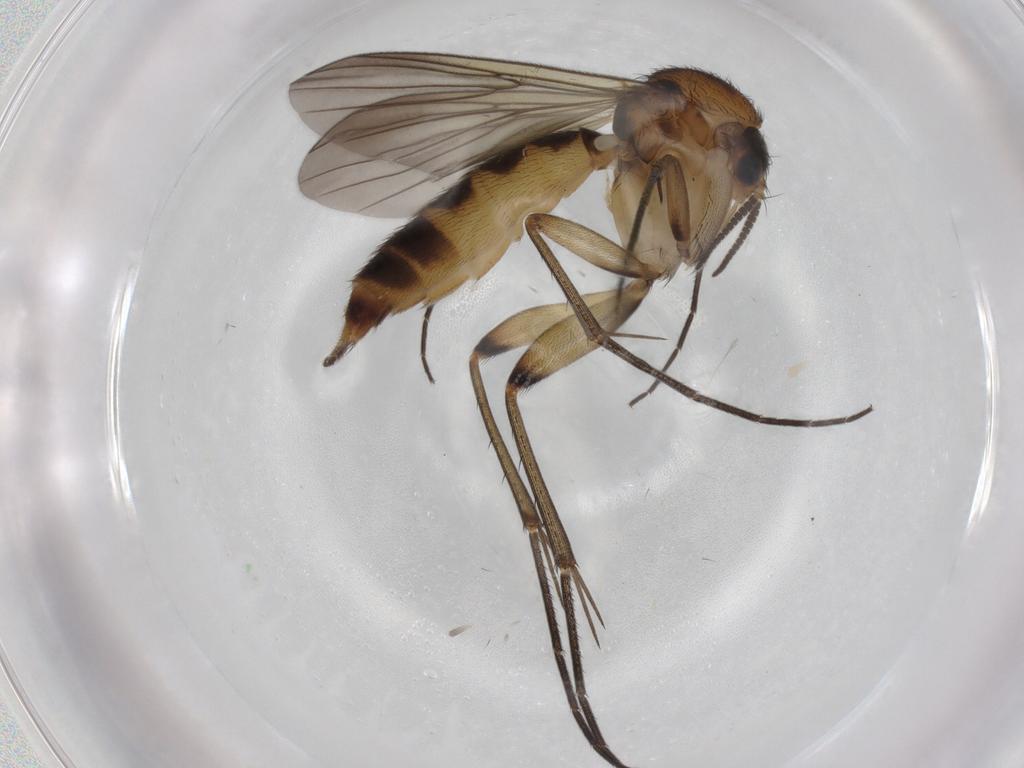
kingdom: Animalia
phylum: Arthropoda
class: Insecta
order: Diptera
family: Mycetophilidae
